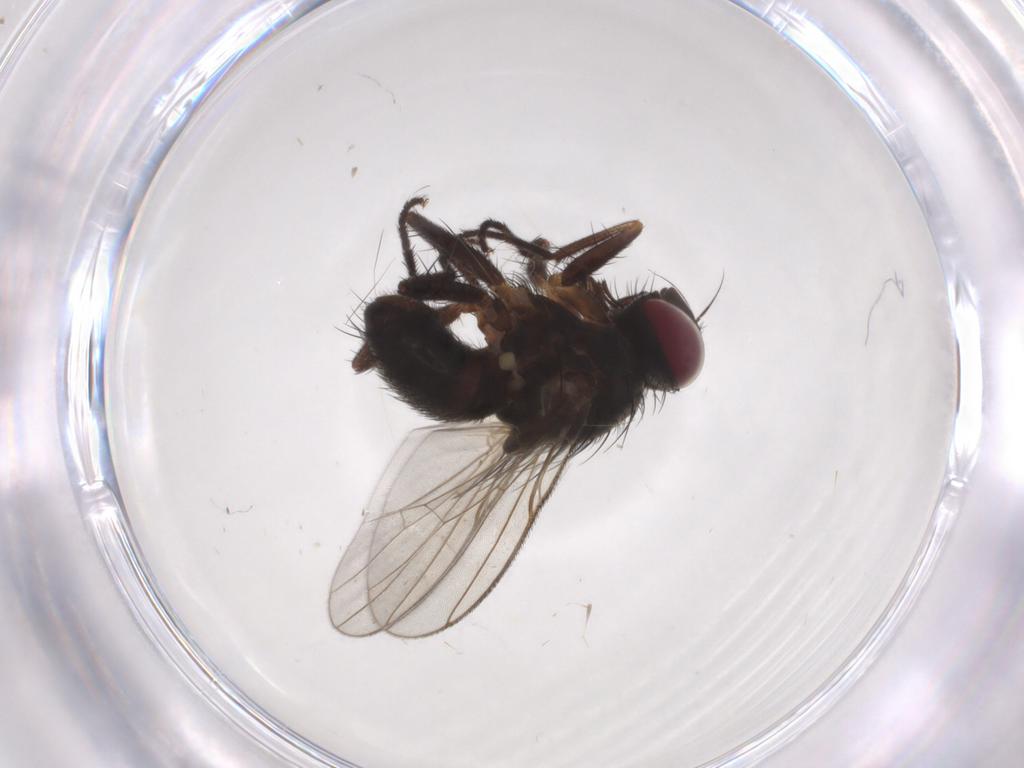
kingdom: Animalia
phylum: Arthropoda
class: Insecta
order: Diptera
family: Muscidae
